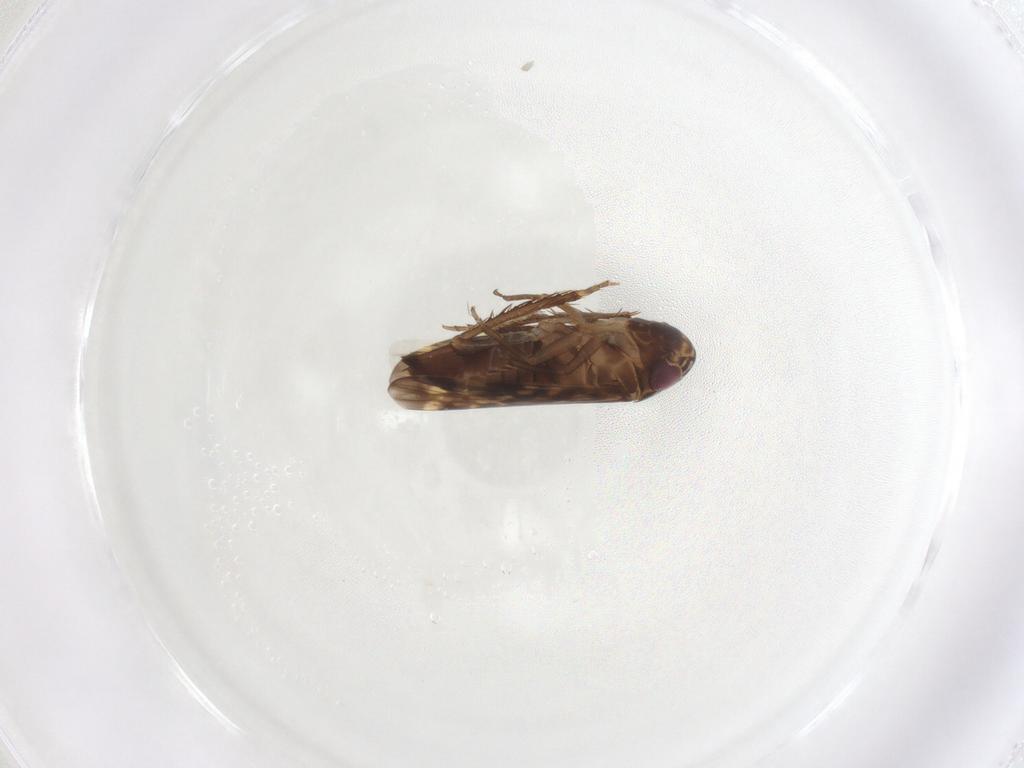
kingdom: Animalia
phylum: Arthropoda
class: Insecta
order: Hemiptera
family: Cicadellidae
